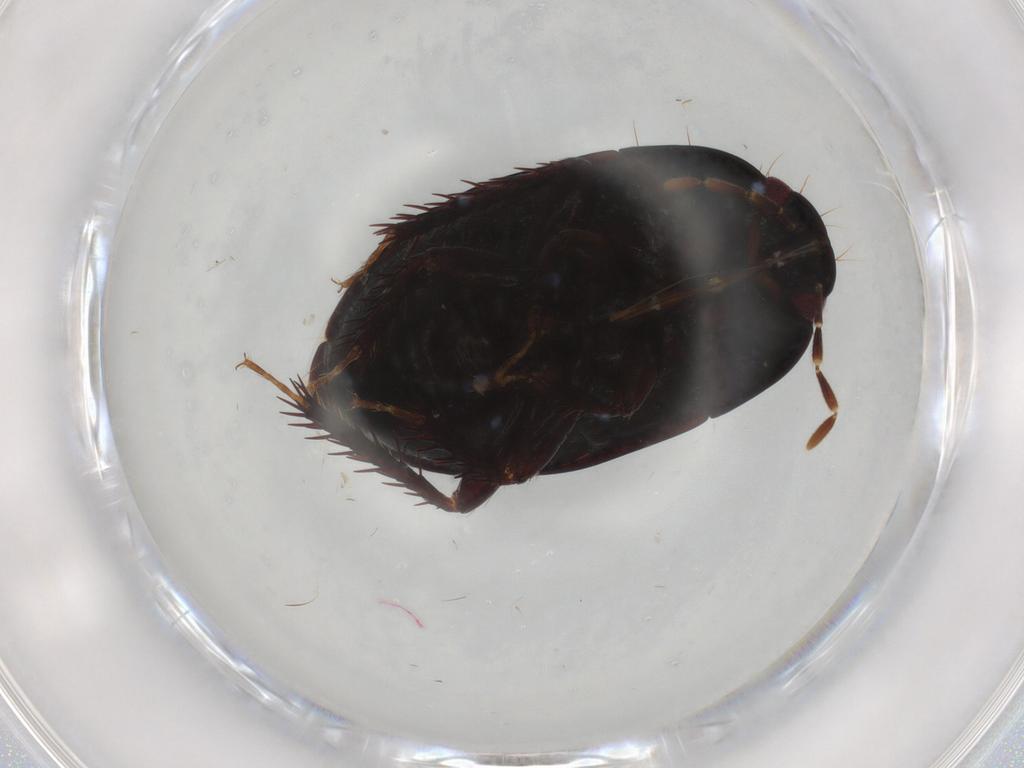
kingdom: Animalia
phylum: Arthropoda
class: Insecta
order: Hemiptera
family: Cydnidae
